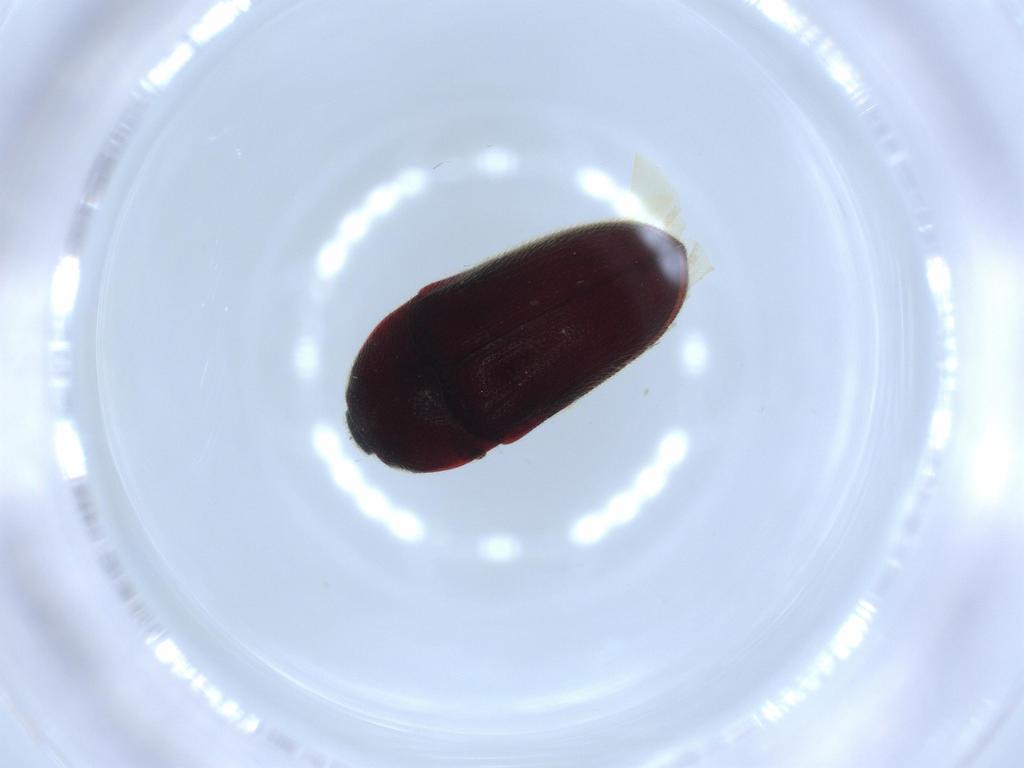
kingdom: Animalia
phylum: Arthropoda
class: Insecta
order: Coleoptera
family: Throscidae
